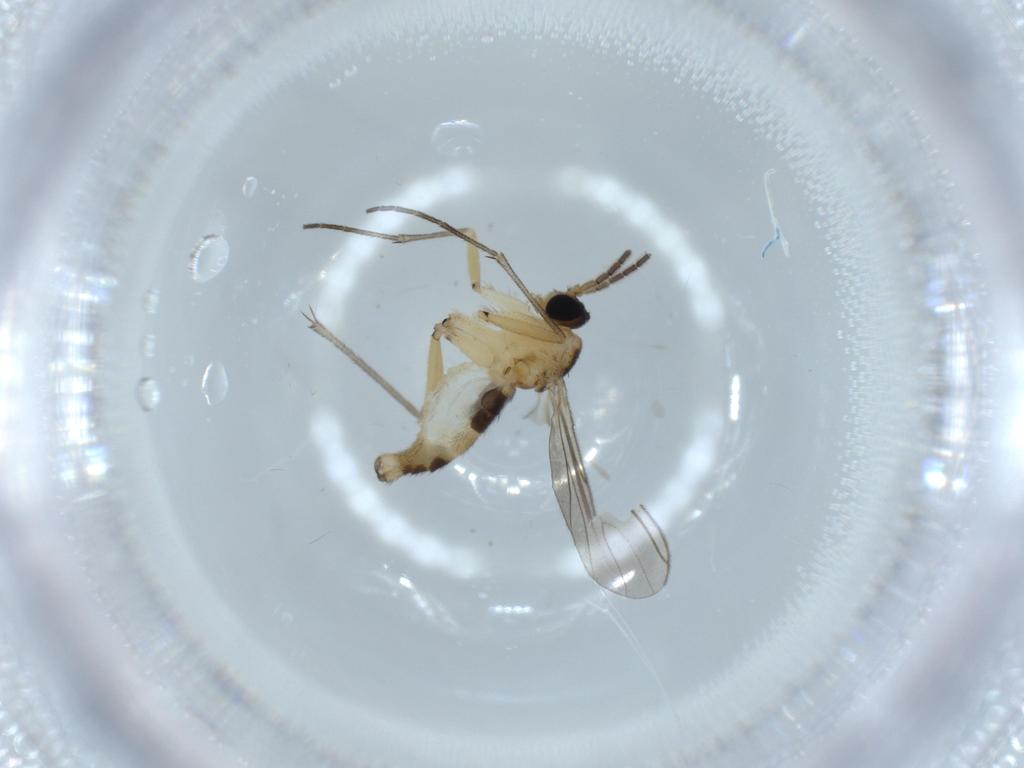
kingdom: Animalia
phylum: Arthropoda
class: Insecta
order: Diptera
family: Sciaridae
